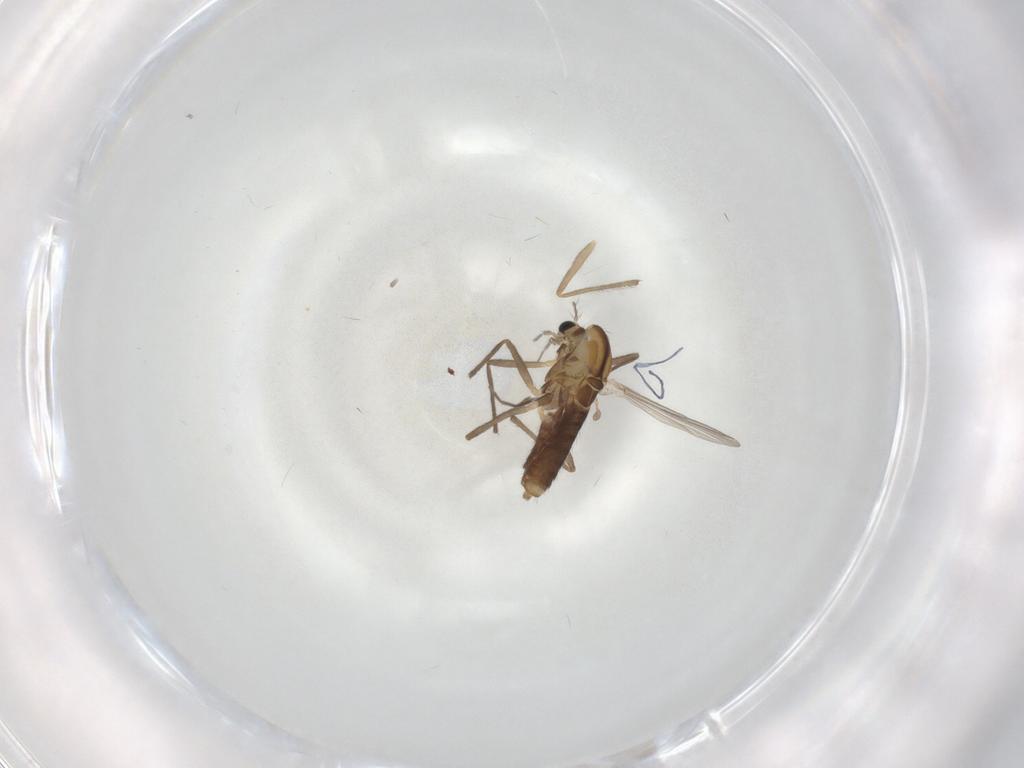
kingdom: Animalia
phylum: Arthropoda
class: Insecta
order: Diptera
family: Chironomidae
